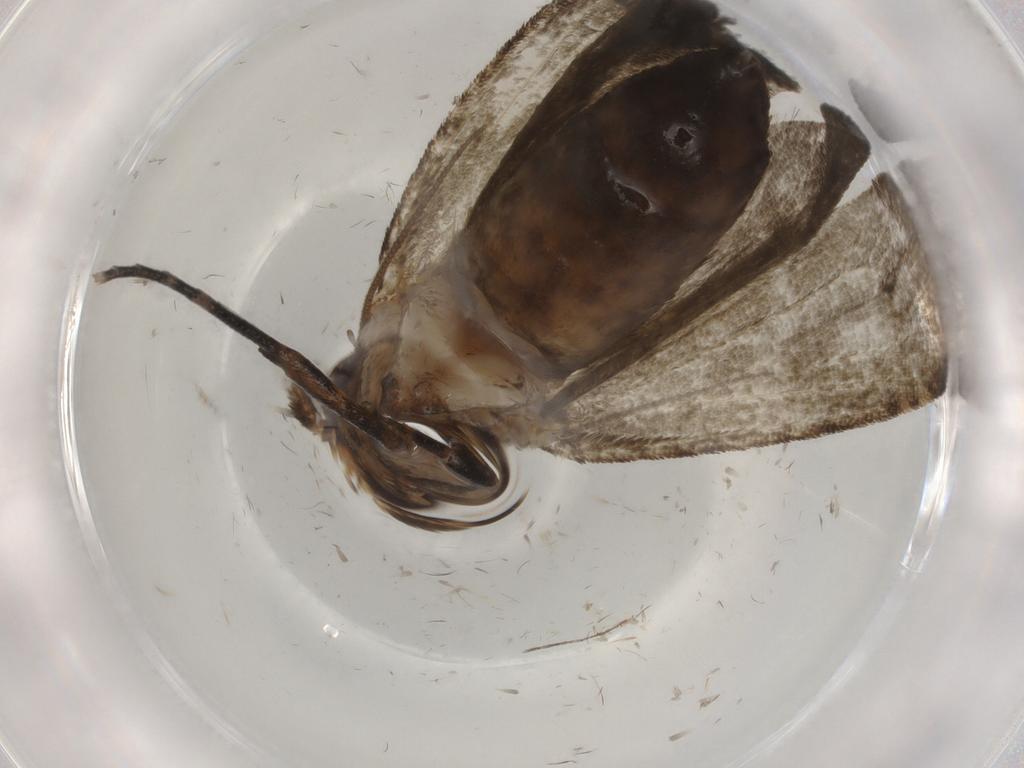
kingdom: Animalia
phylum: Arthropoda
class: Insecta
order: Lepidoptera
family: Tineidae
